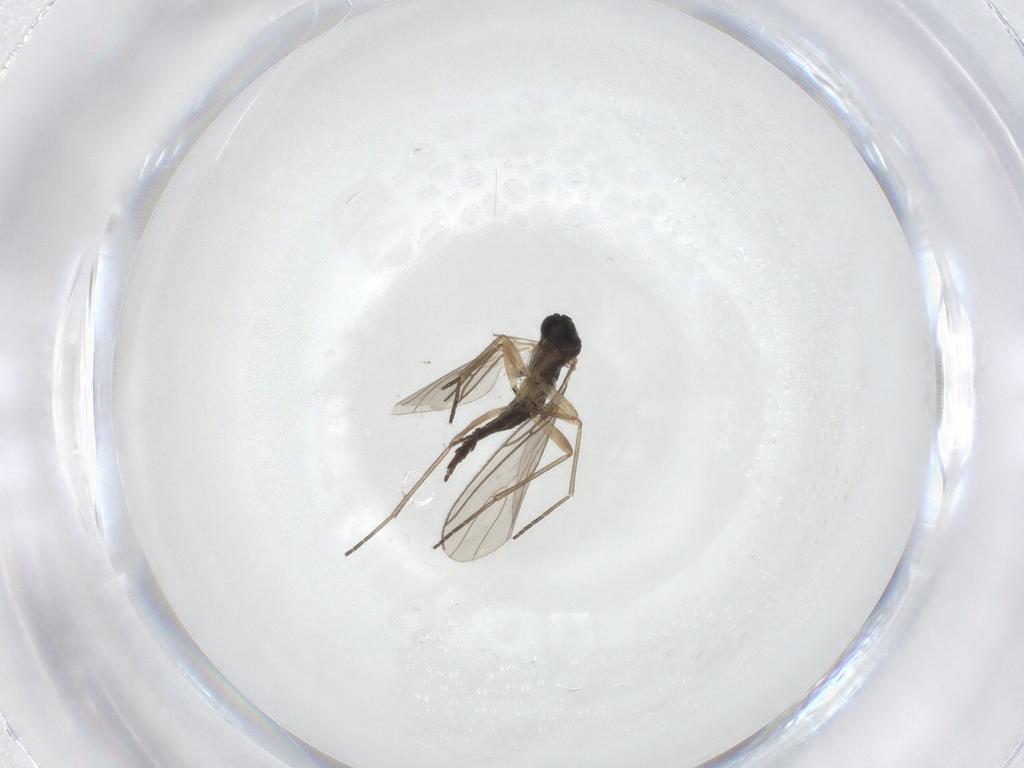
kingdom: Animalia
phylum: Arthropoda
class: Insecta
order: Diptera
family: Sciaridae
